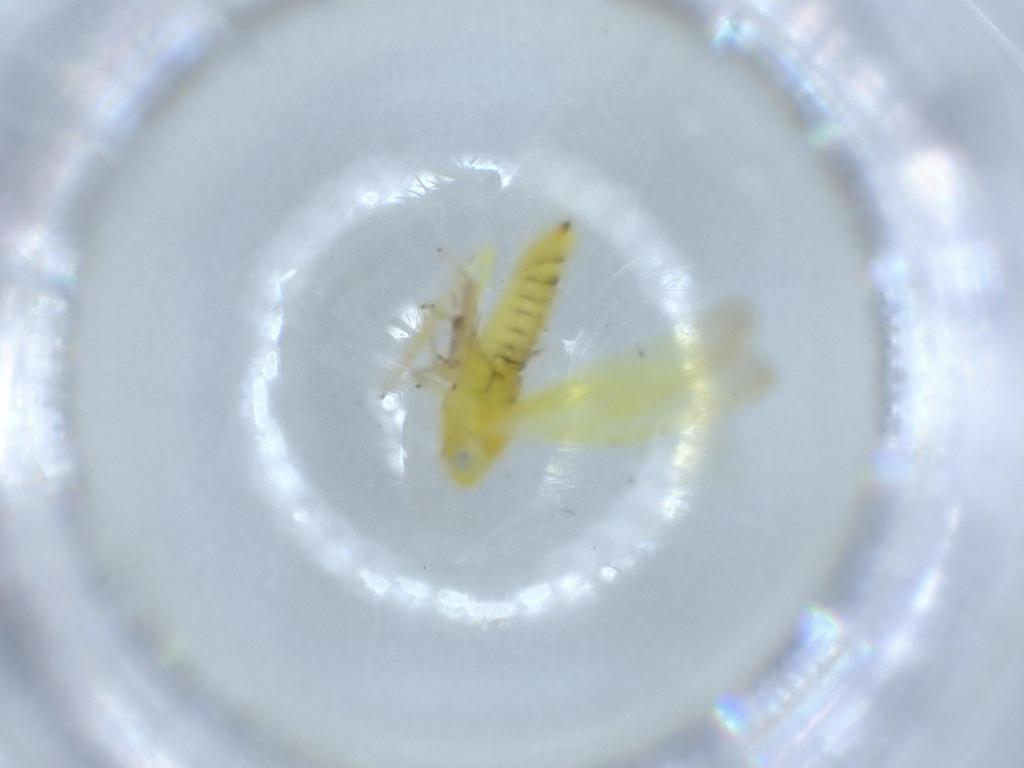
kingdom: Animalia
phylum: Arthropoda
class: Insecta
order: Hemiptera
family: Cicadellidae
